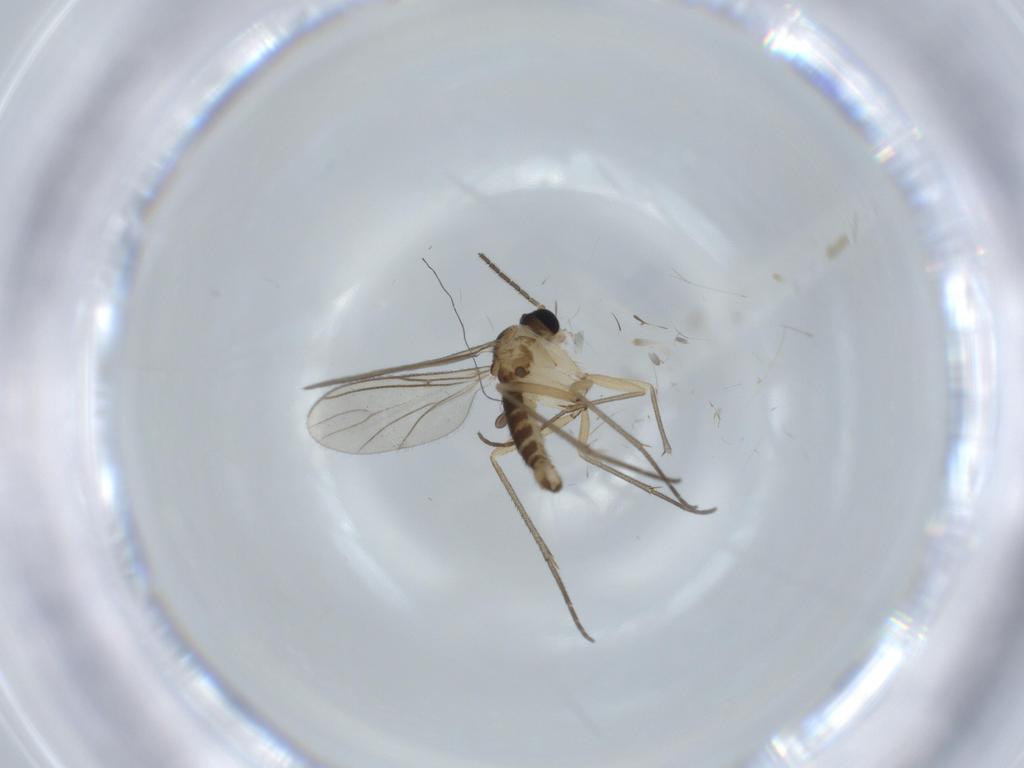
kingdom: Animalia
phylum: Arthropoda
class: Insecta
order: Diptera
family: Sciaridae
